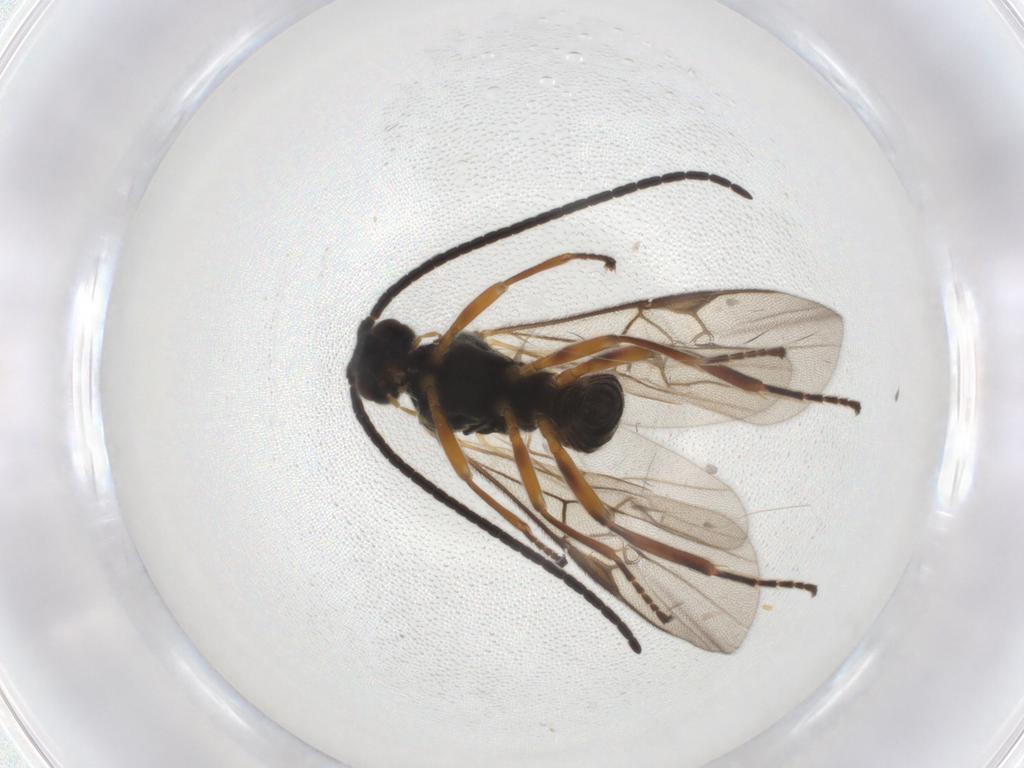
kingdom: Animalia
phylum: Arthropoda
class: Insecta
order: Hymenoptera
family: Braconidae
